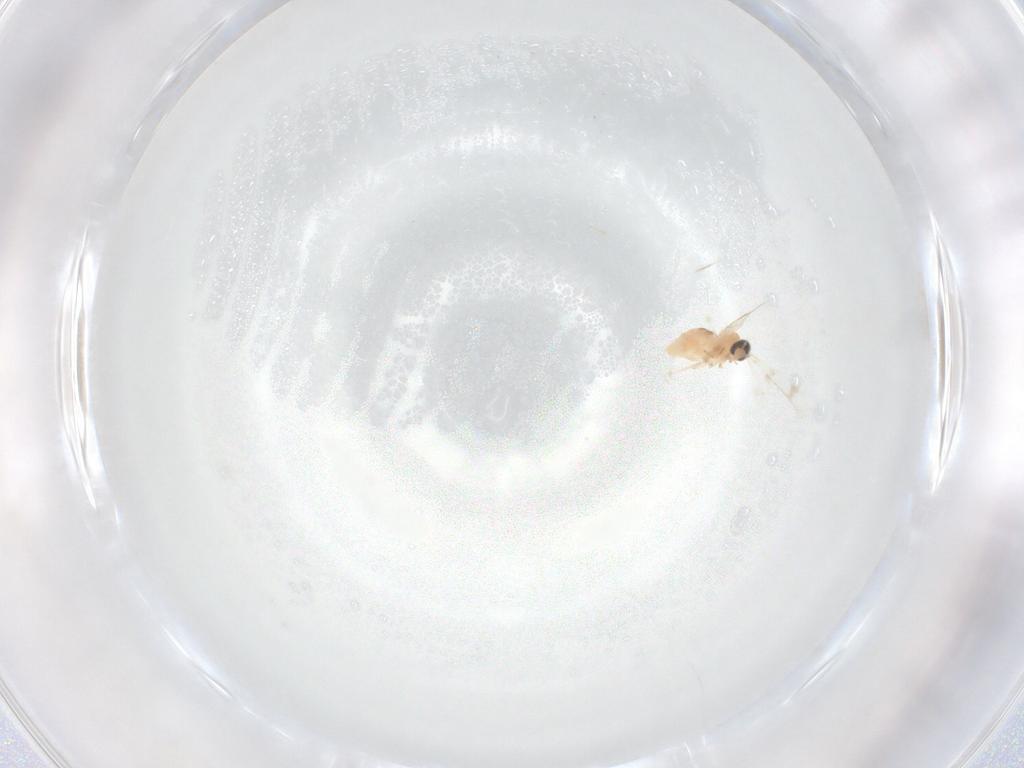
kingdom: Animalia
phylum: Arthropoda
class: Insecta
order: Diptera
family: Cecidomyiidae
